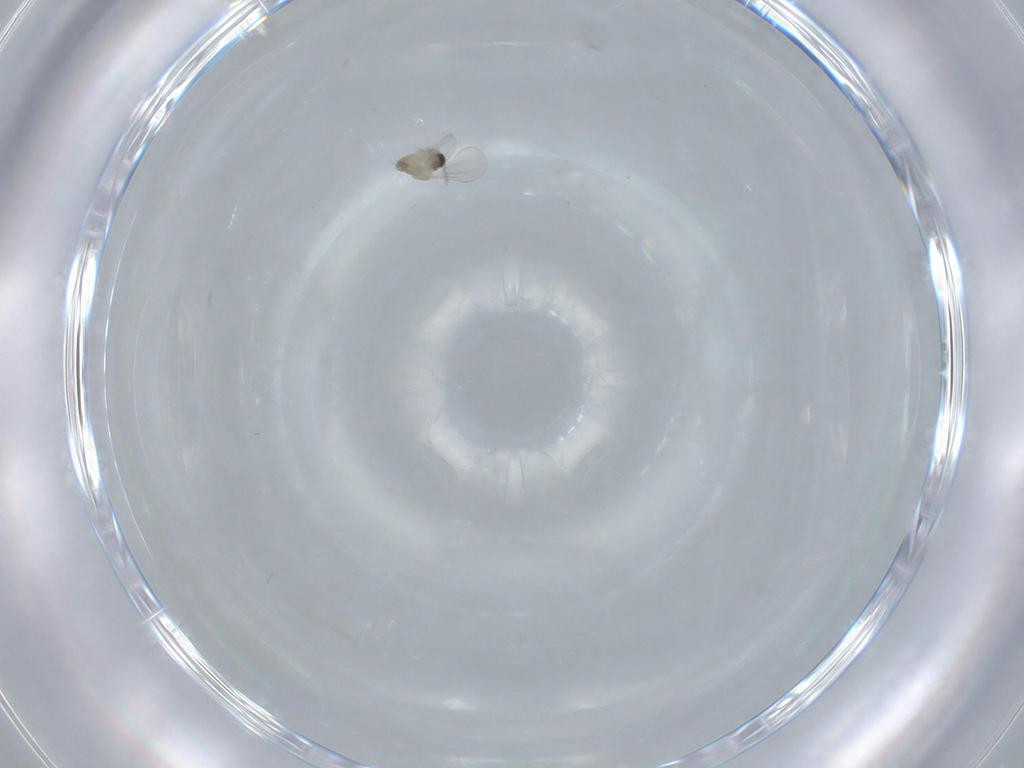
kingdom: Animalia
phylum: Arthropoda
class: Insecta
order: Diptera
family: Cecidomyiidae
